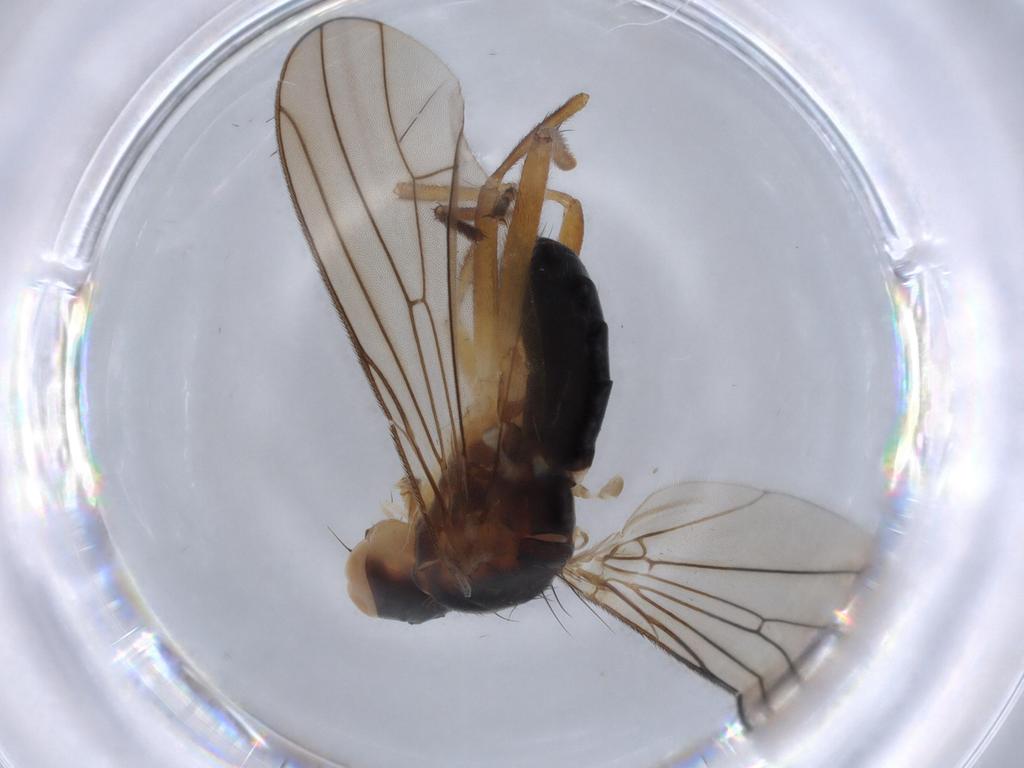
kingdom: Animalia
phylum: Arthropoda
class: Insecta
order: Diptera
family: Scathophagidae
